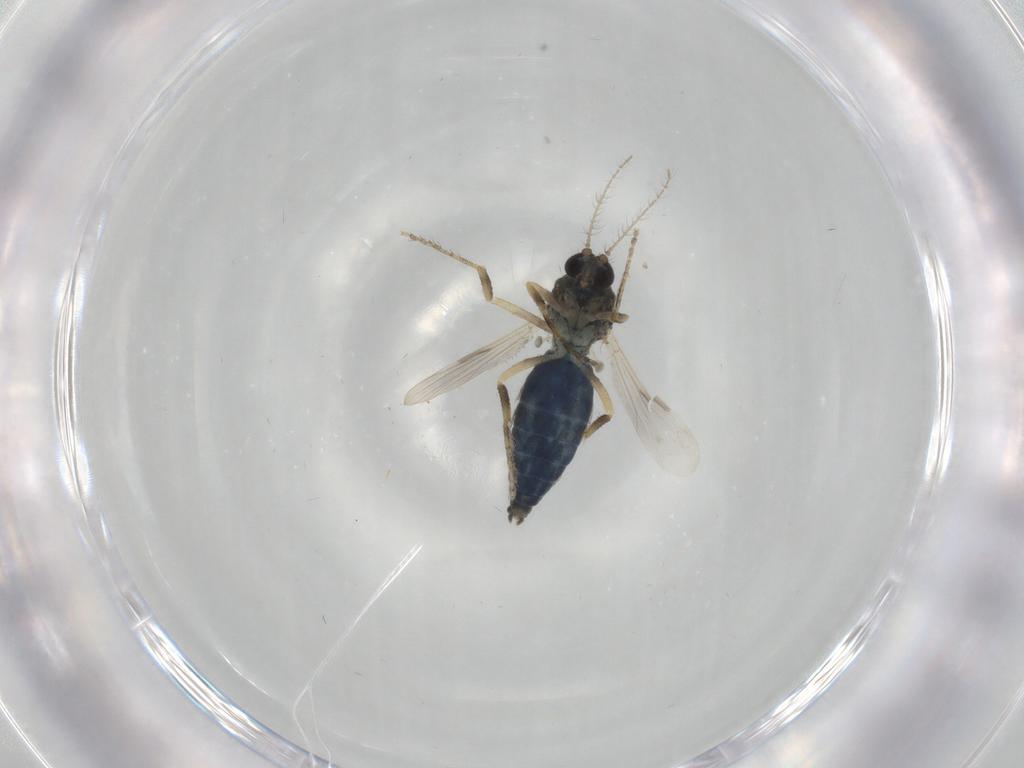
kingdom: Animalia
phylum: Arthropoda
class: Insecta
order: Diptera
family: Ceratopogonidae
